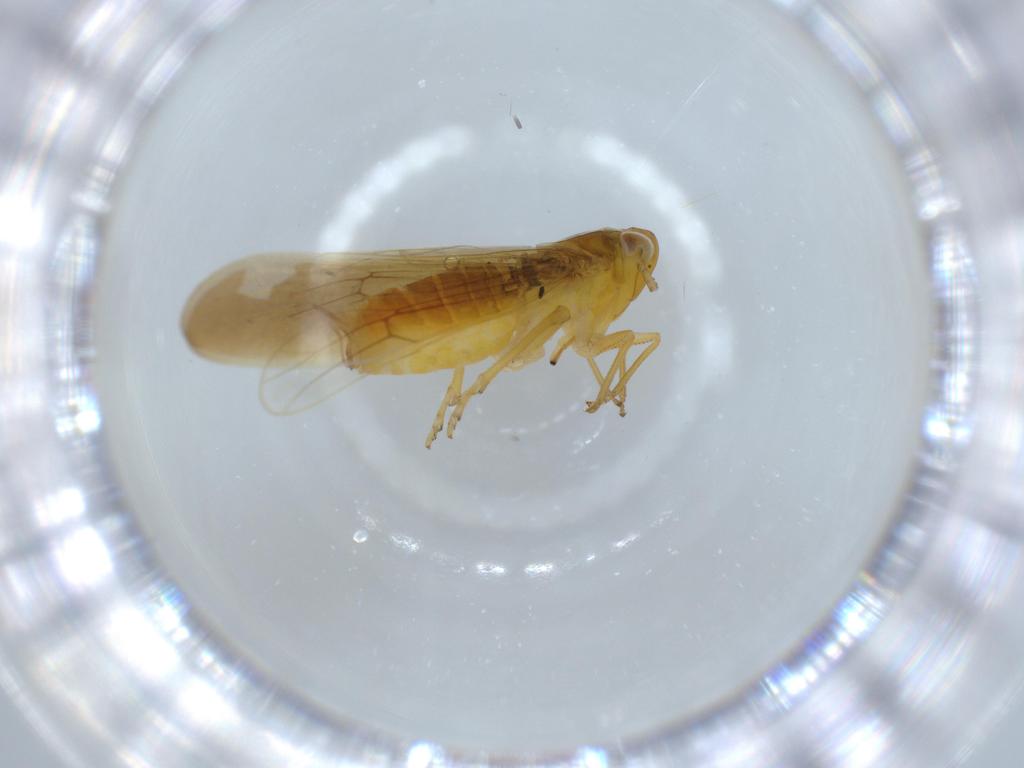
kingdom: Animalia
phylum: Arthropoda
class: Insecta
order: Hemiptera
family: Delphacidae
